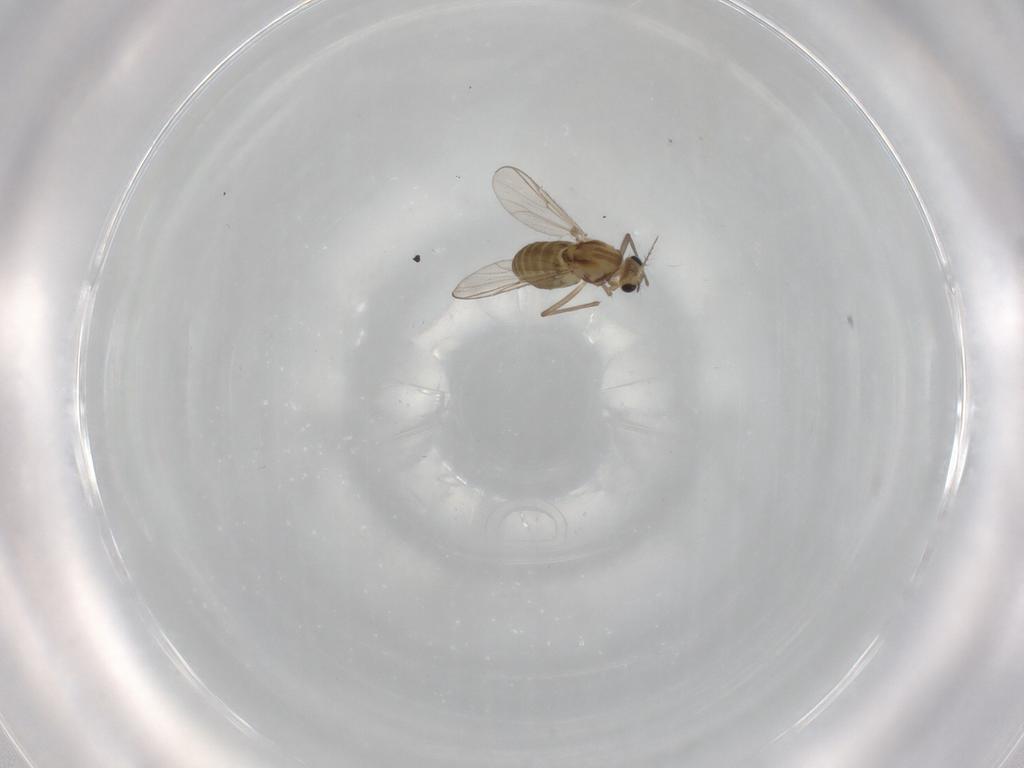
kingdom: Animalia
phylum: Arthropoda
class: Insecta
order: Diptera
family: Chironomidae
